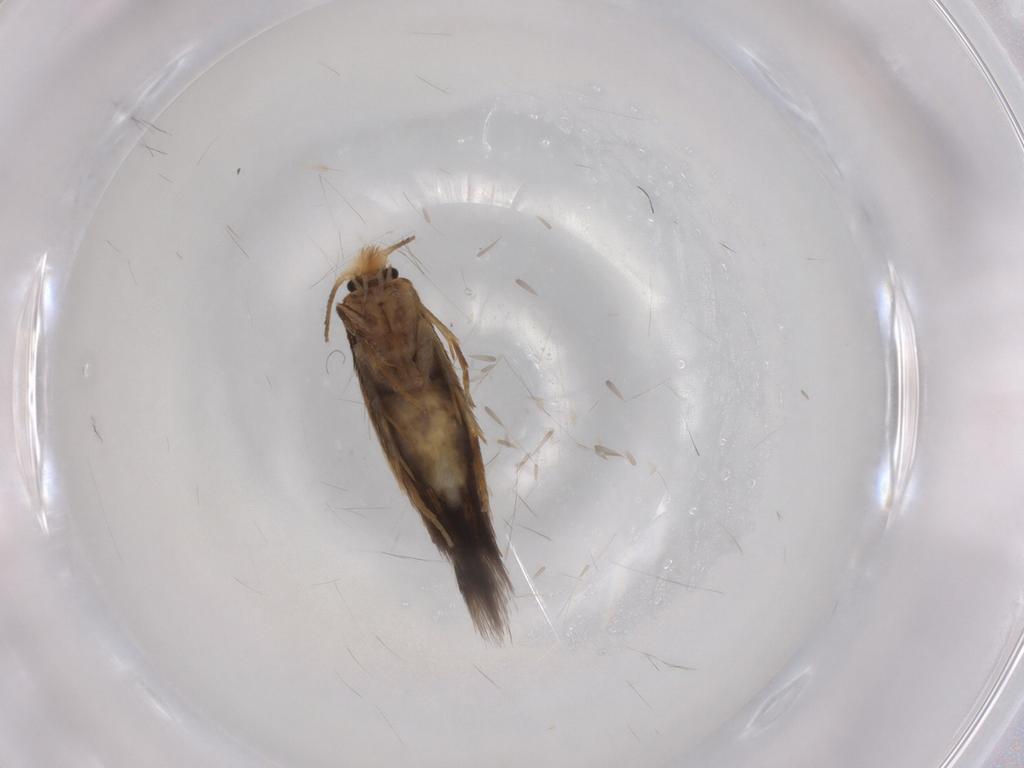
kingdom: Animalia
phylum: Arthropoda
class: Insecta
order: Lepidoptera
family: Nepticulidae
